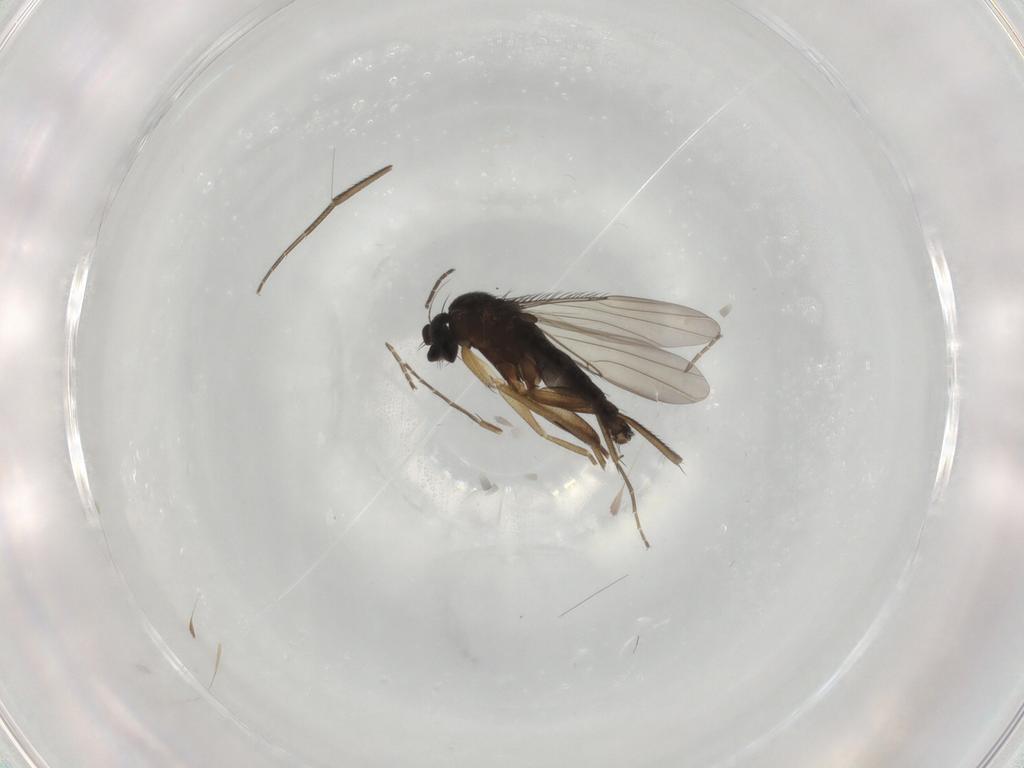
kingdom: Animalia
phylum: Arthropoda
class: Insecta
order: Diptera
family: Phoridae
